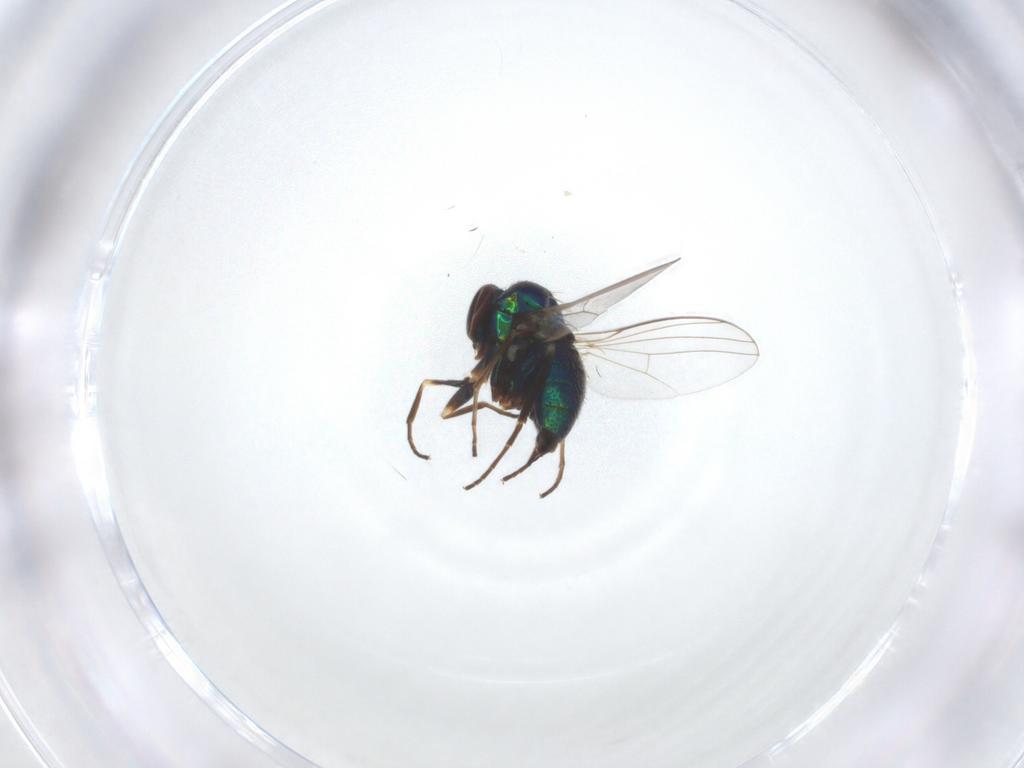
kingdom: Animalia
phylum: Arthropoda
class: Insecta
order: Diptera
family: Dolichopodidae
